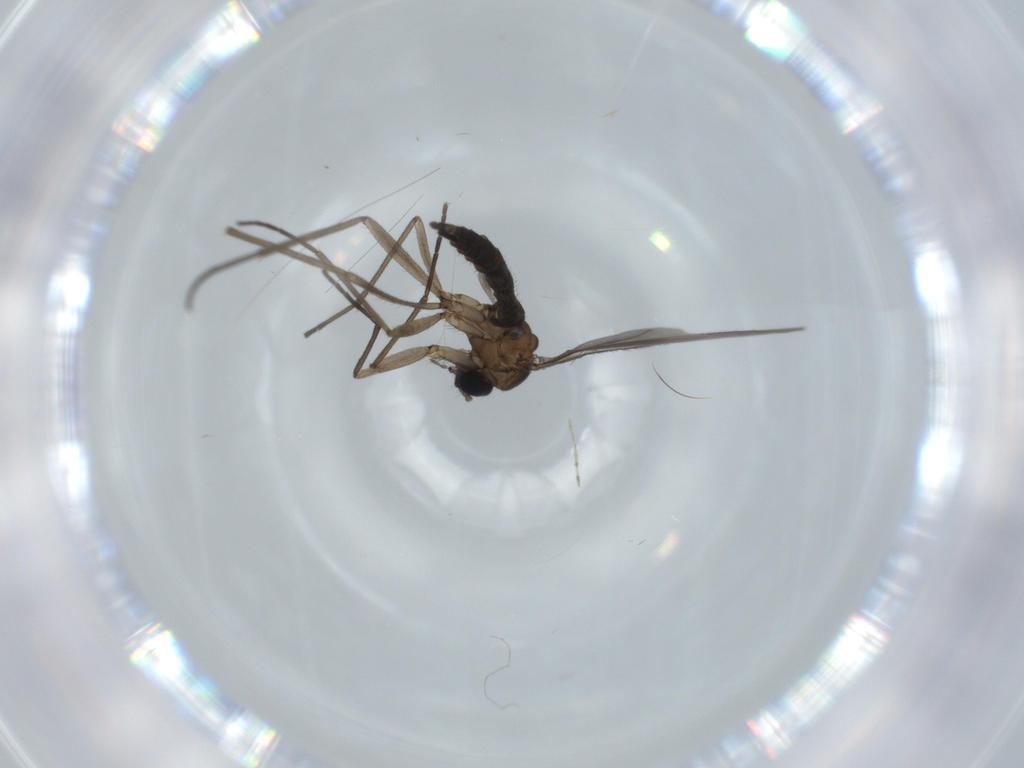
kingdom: Animalia
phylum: Arthropoda
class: Insecta
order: Diptera
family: Sciaridae
